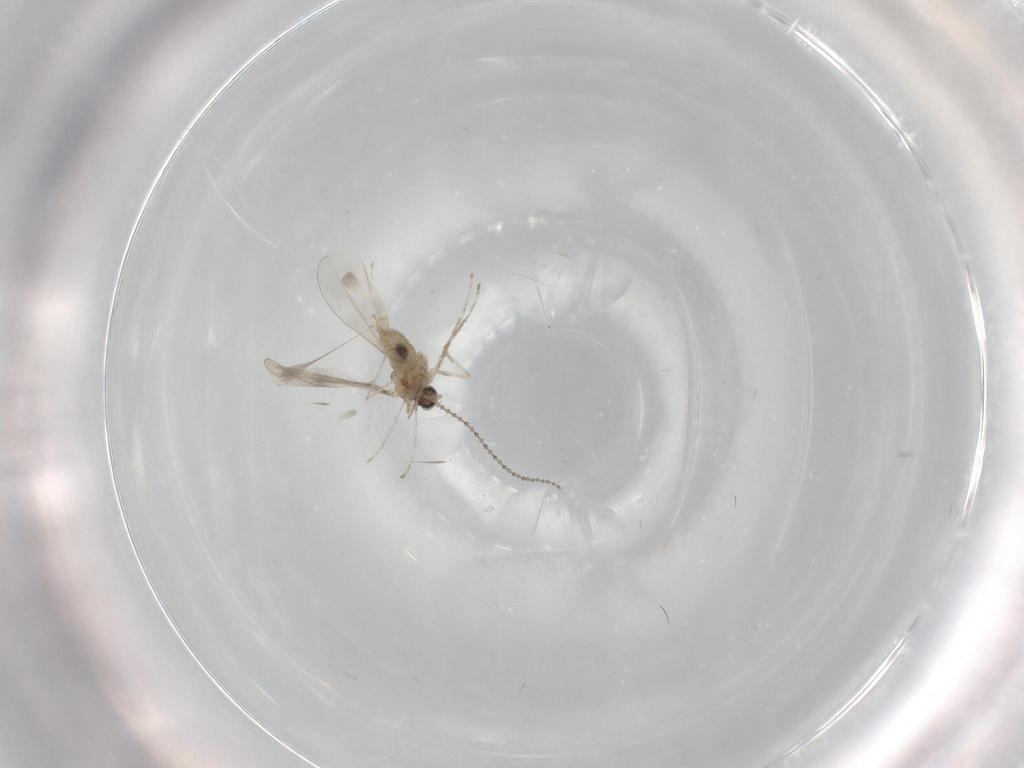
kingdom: Animalia
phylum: Arthropoda
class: Insecta
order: Diptera
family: Cecidomyiidae
